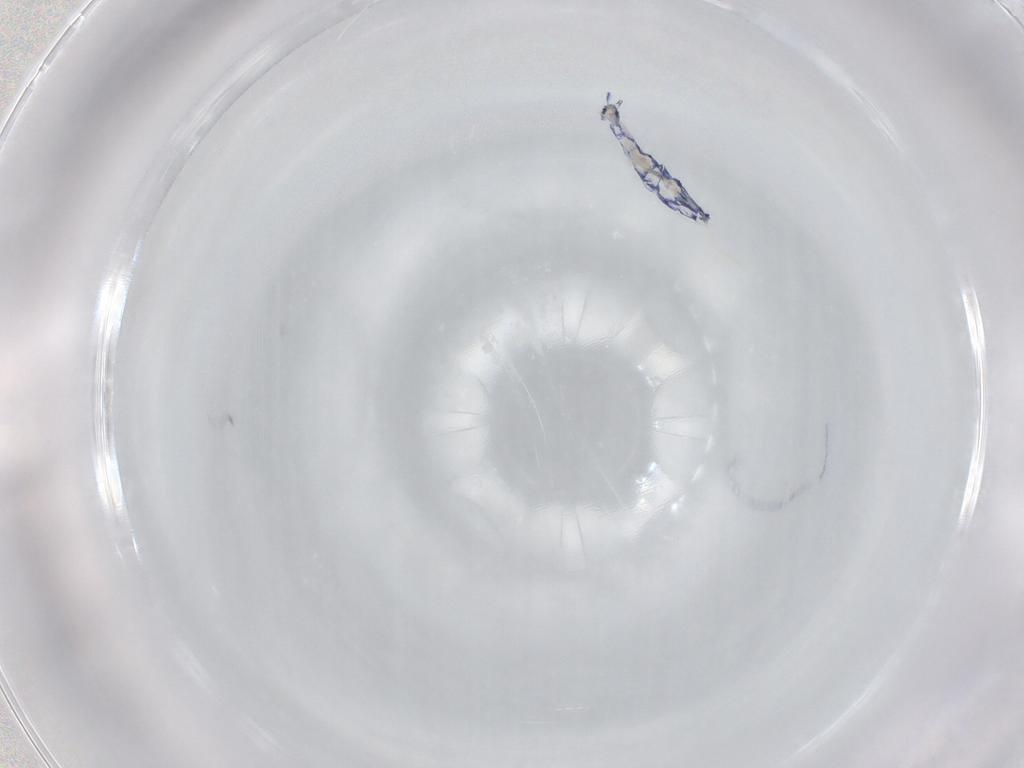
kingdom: Animalia
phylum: Arthropoda
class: Collembola
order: Entomobryomorpha
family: Entomobryidae
